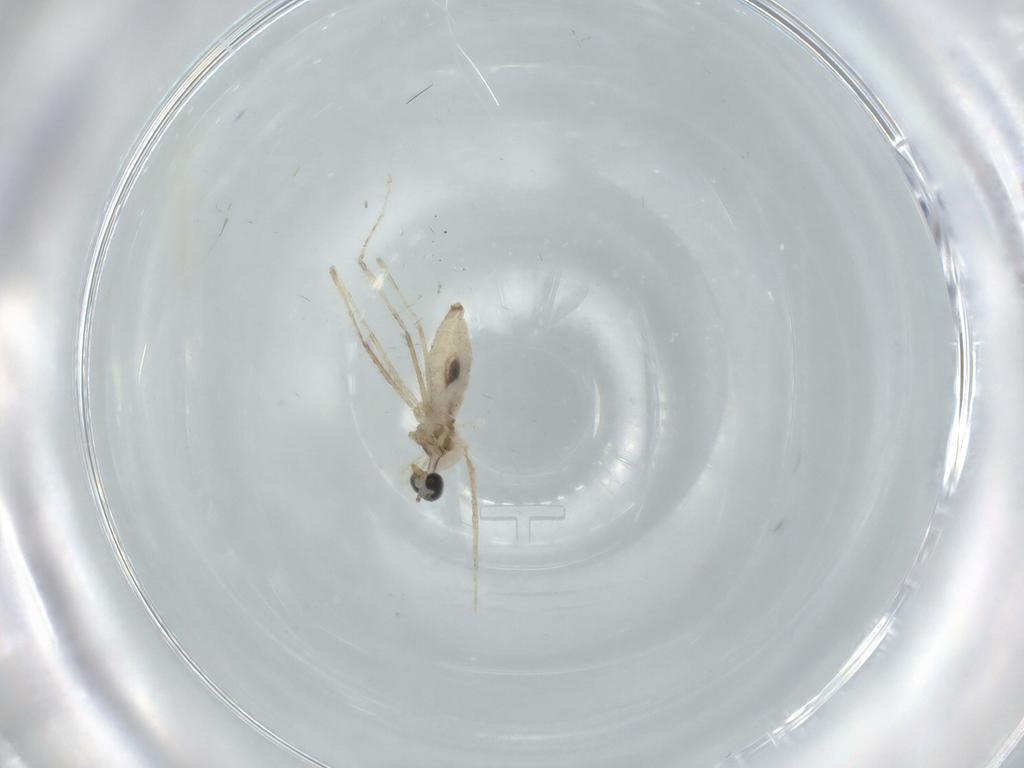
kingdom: Animalia
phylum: Arthropoda
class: Insecta
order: Diptera
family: Cecidomyiidae
